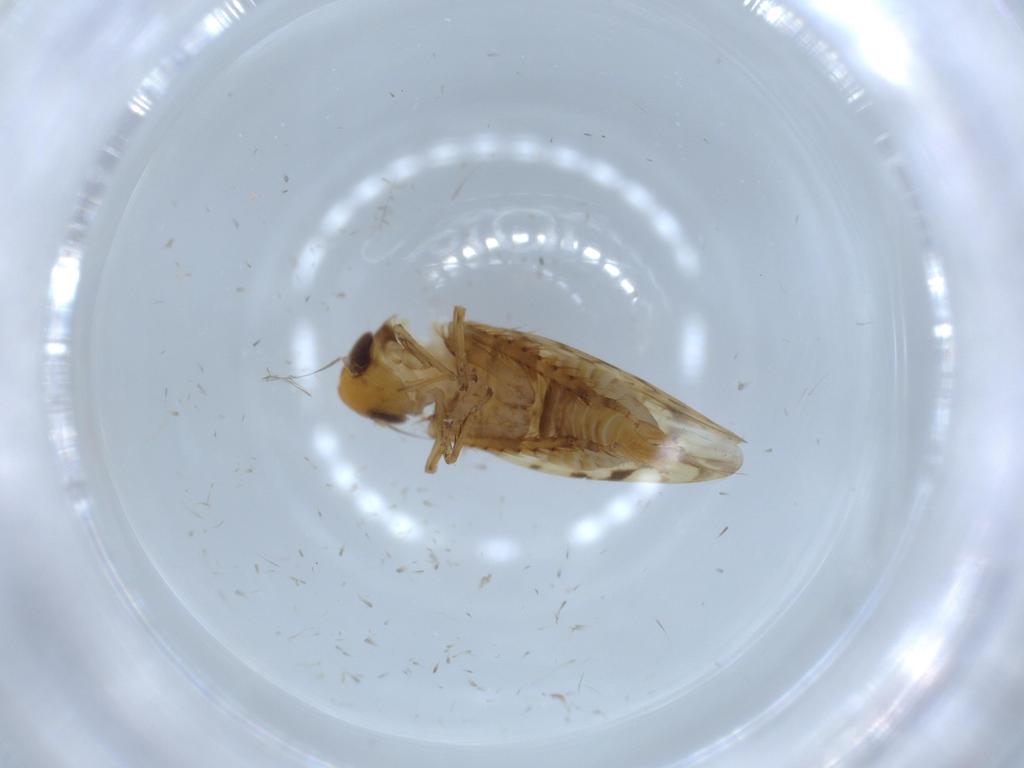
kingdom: Animalia
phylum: Arthropoda
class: Insecta
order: Hemiptera
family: Cicadellidae
